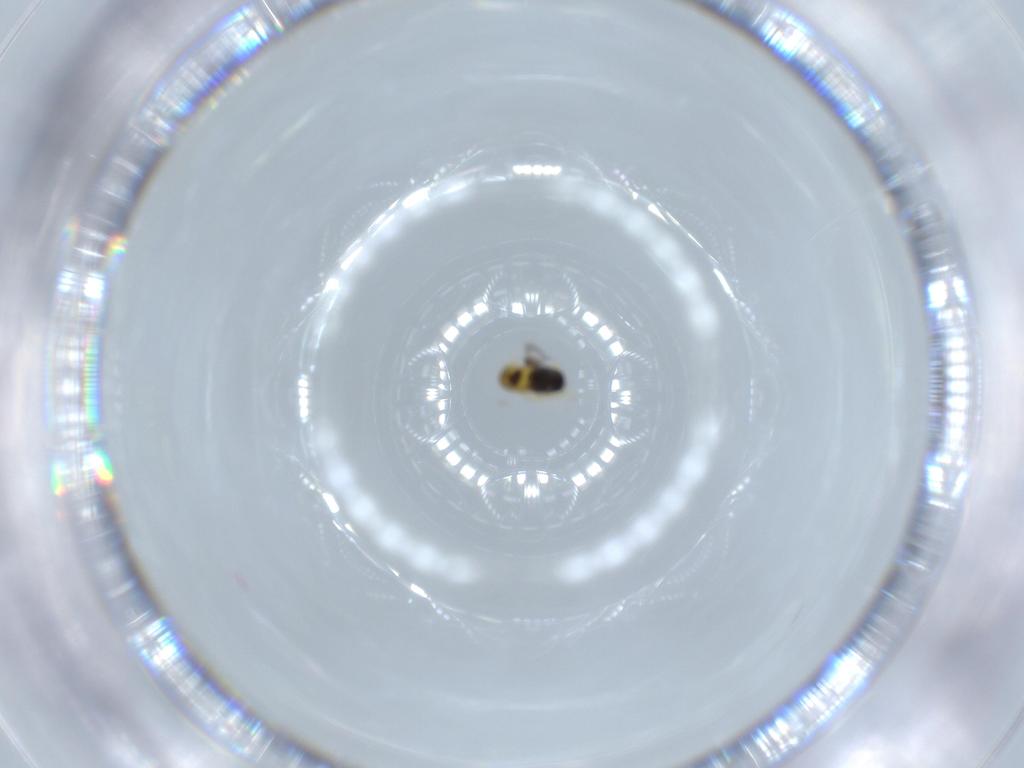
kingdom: Animalia
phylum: Arthropoda
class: Insecta
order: Hymenoptera
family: Signiphoridae
